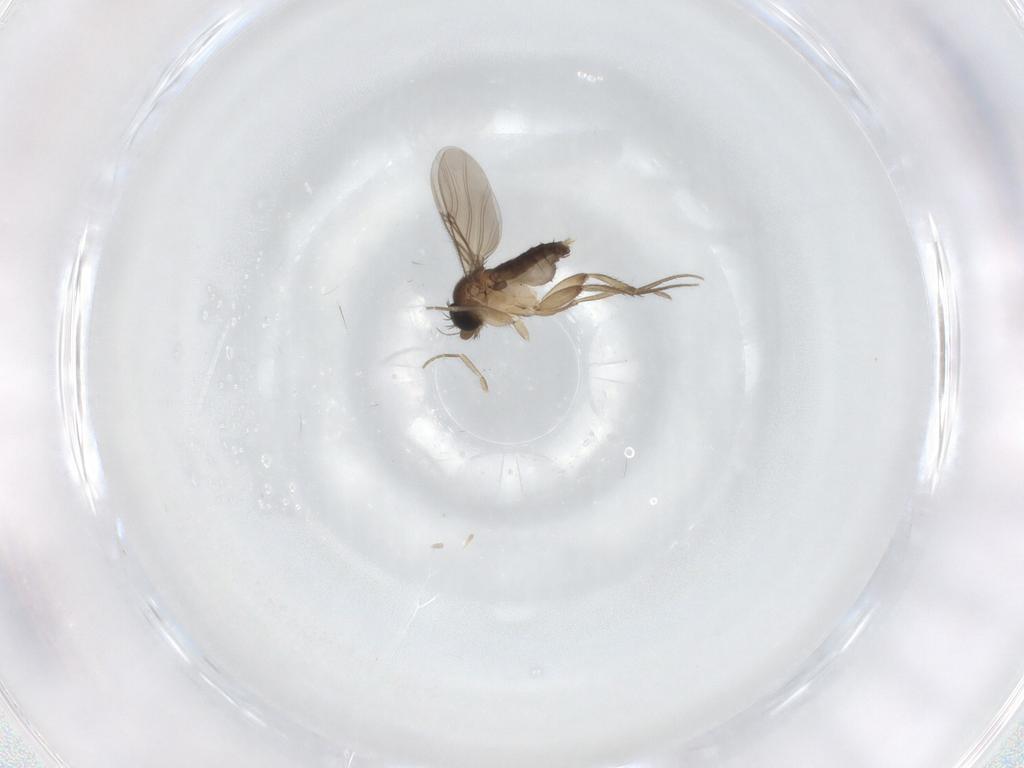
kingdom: Animalia
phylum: Arthropoda
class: Insecta
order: Diptera
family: Phoridae
